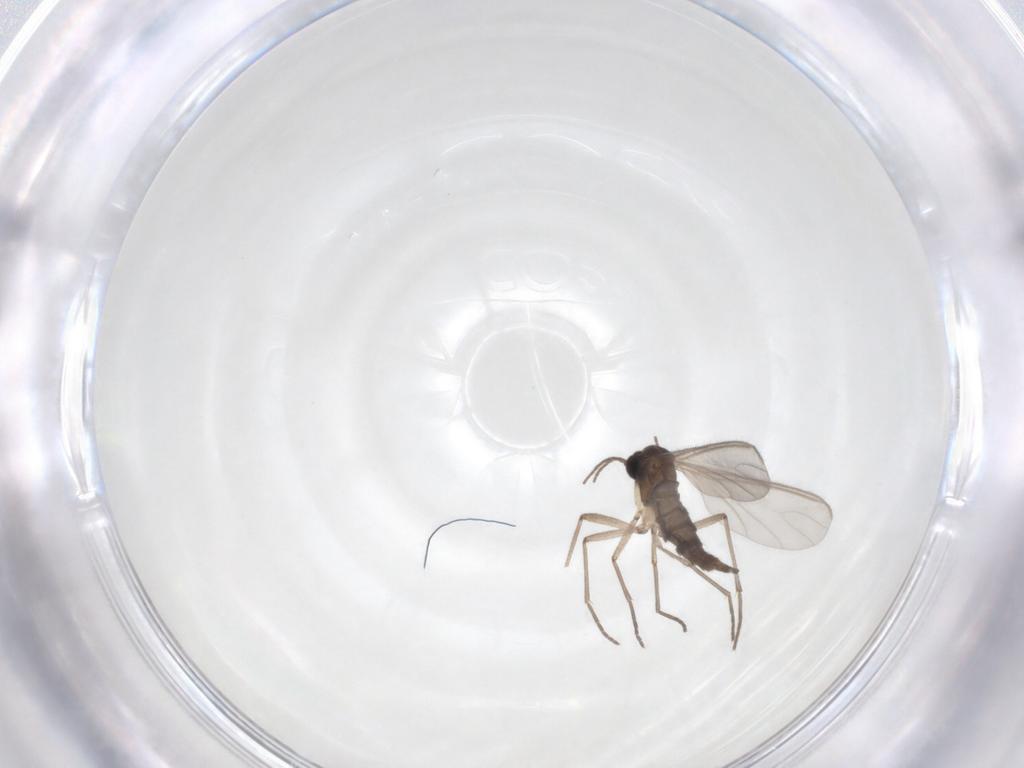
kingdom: Animalia
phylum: Arthropoda
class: Insecta
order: Diptera
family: Sciaridae
